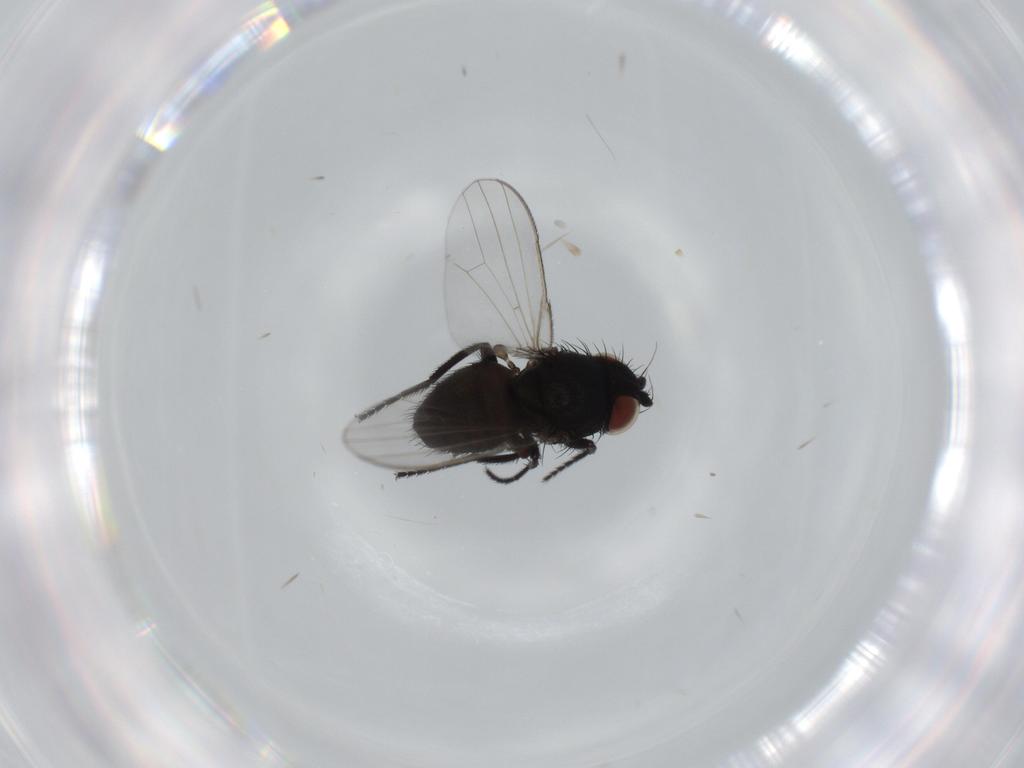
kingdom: Animalia
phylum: Arthropoda
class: Insecta
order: Diptera
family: Milichiidae
